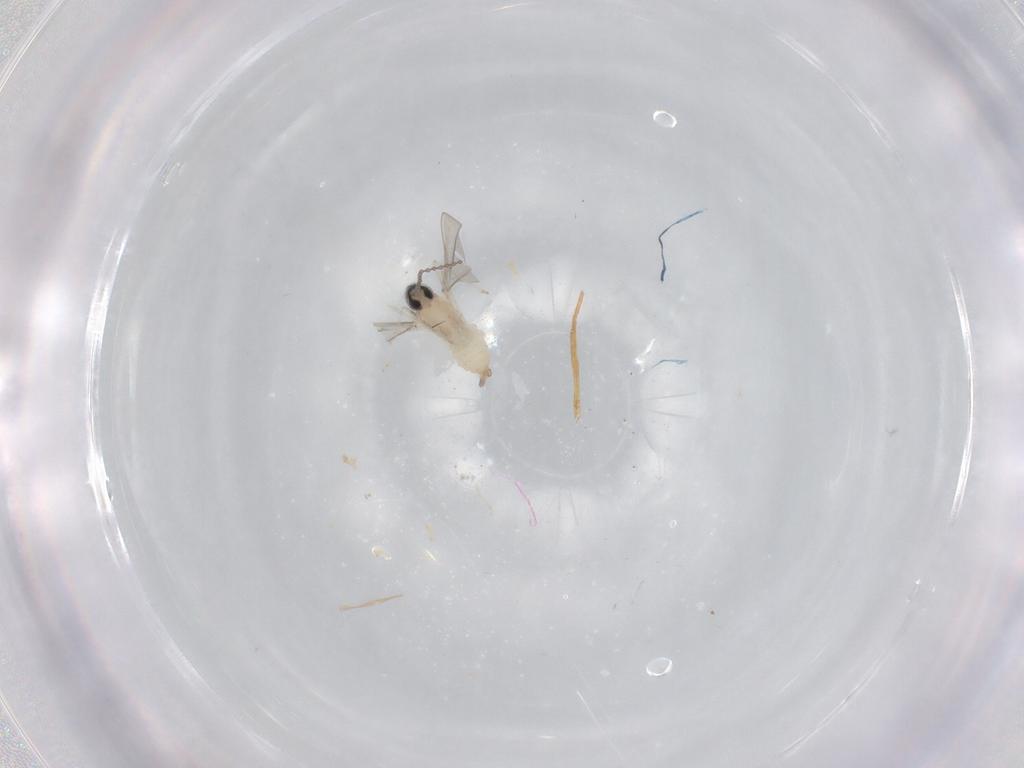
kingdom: Animalia
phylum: Arthropoda
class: Insecta
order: Diptera
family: Cecidomyiidae
